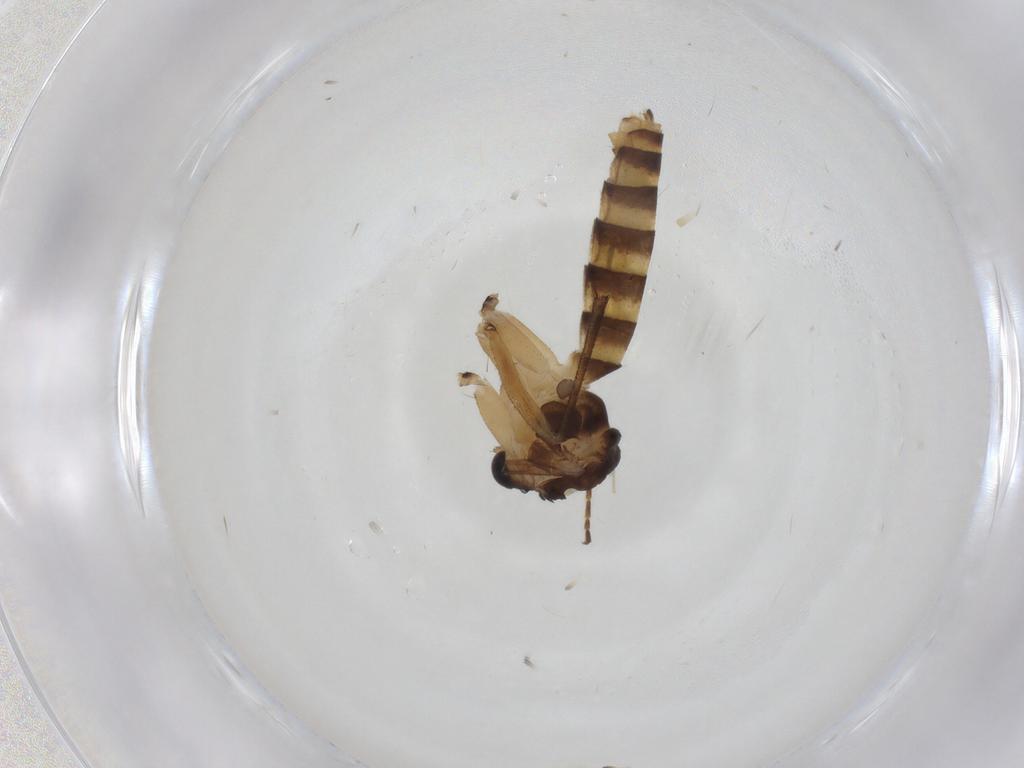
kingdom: Animalia
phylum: Arthropoda
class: Insecta
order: Diptera
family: Mycetophilidae
